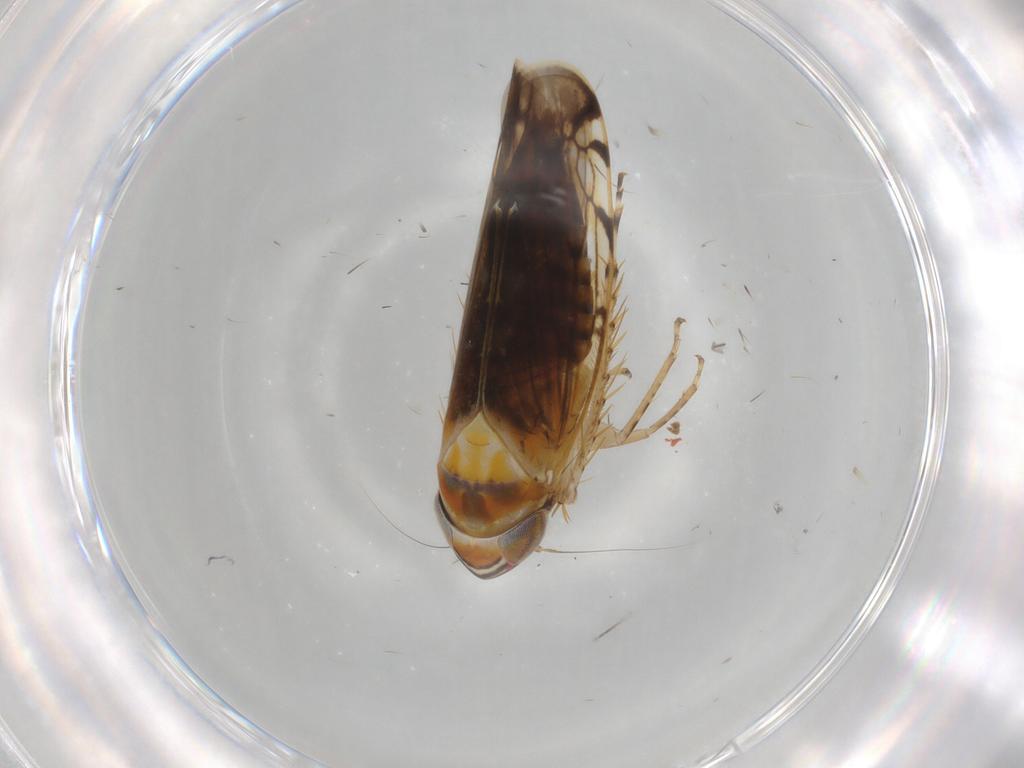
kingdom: Animalia
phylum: Arthropoda
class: Insecta
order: Hemiptera
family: Cicadellidae
